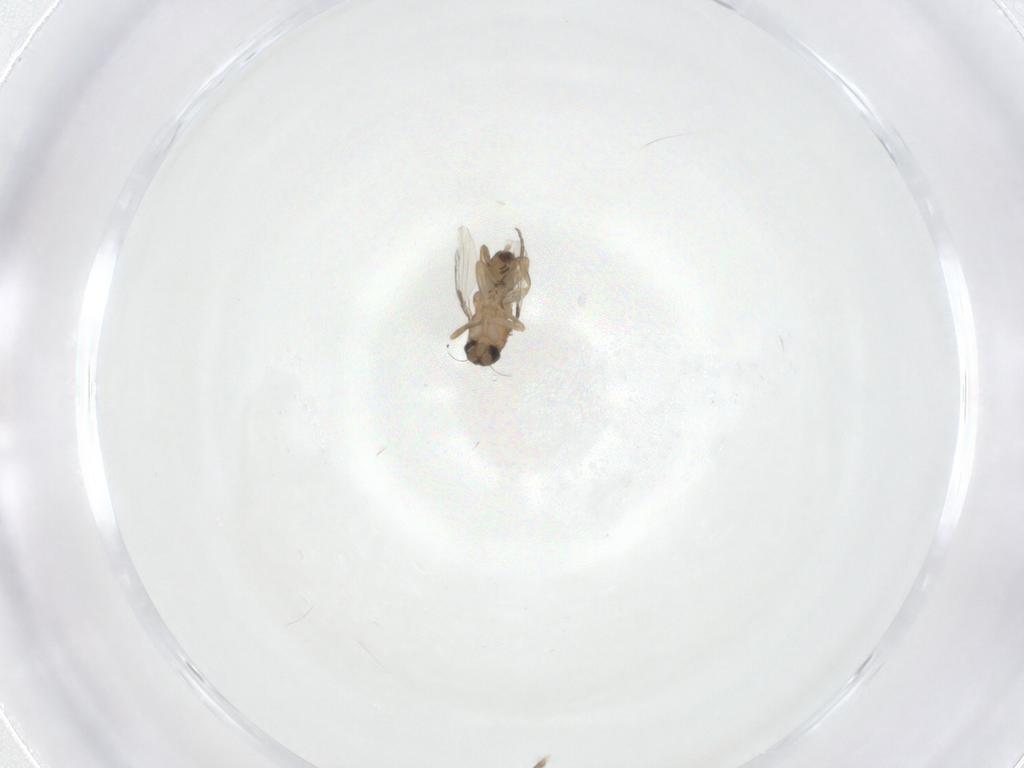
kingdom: Animalia
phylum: Arthropoda
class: Insecta
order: Diptera
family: Phoridae
